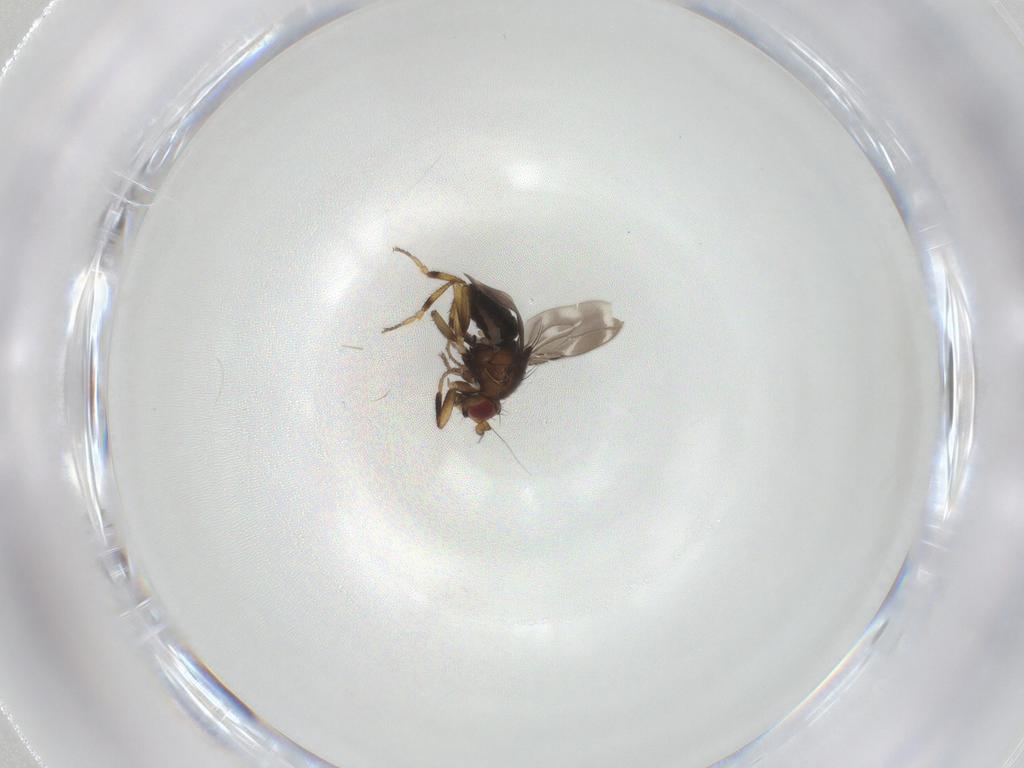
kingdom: Animalia
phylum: Arthropoda
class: Insecta
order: Diptera
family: Sphaeroceridae
